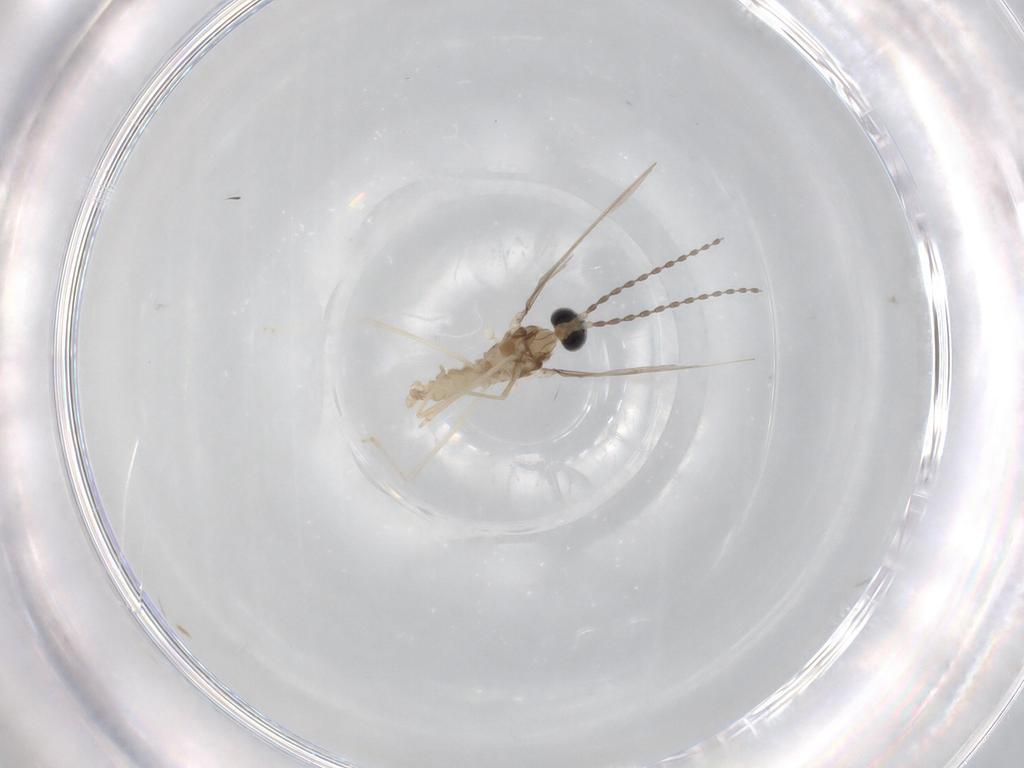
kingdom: Animalia
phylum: Arthropoda
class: Insecta
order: Diptera
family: Cecidomyiidae
